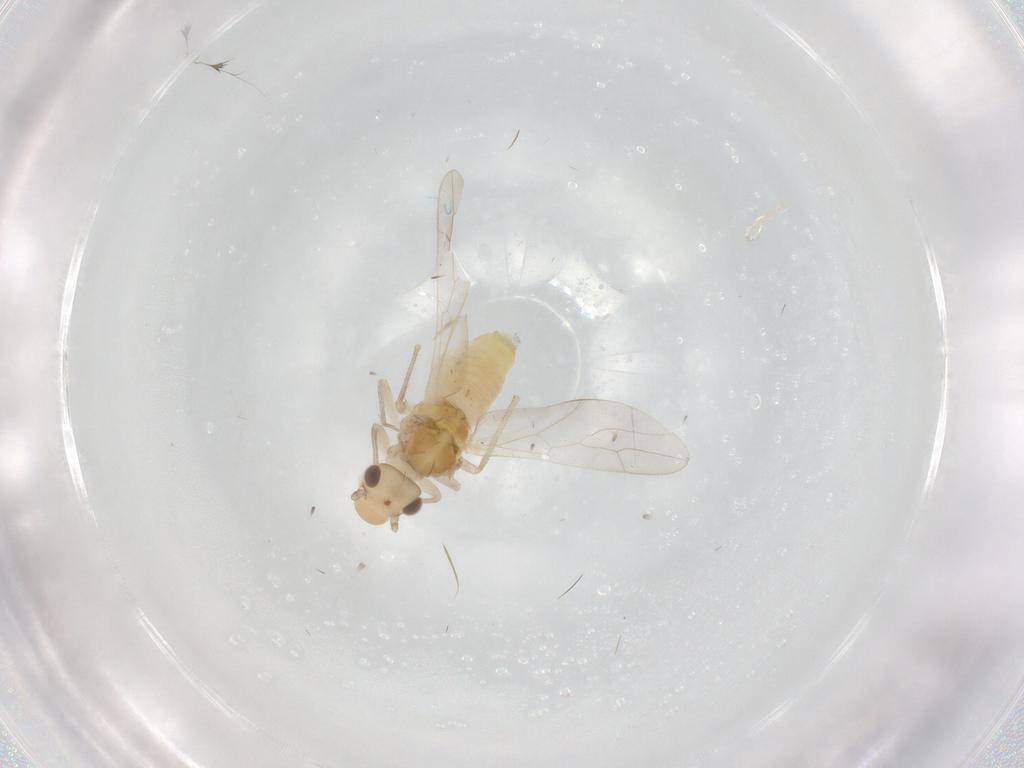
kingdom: Animalia
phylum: Arthropoda
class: Insecta
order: Psocodea
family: Caeciliusidae
